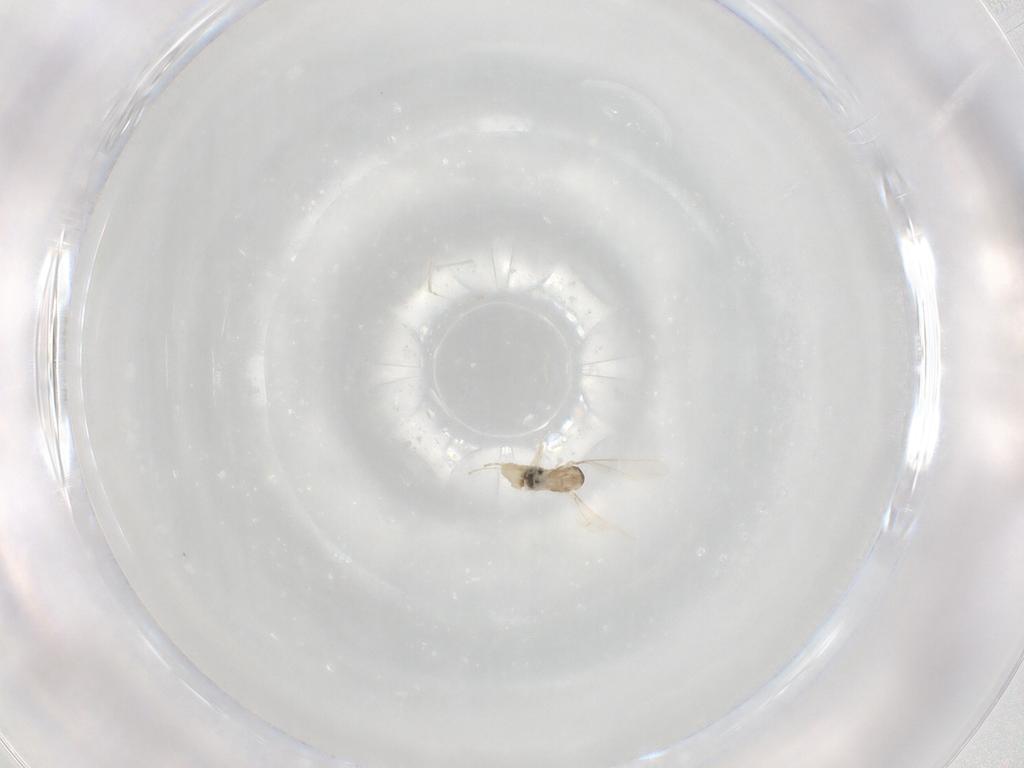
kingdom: Animalia
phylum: Arthropoda
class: Insecta
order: Diptera
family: Cecidomyiidae
